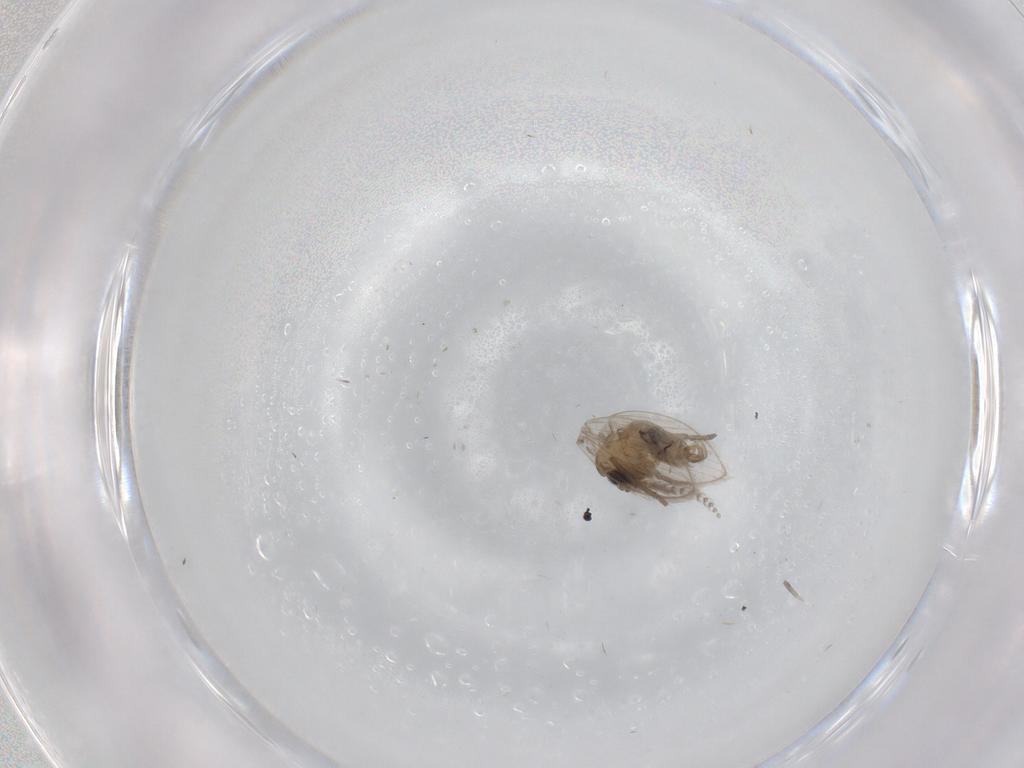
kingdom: Animalia
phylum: Arthropoda
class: Insecta
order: Diptera
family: Psychodidae
